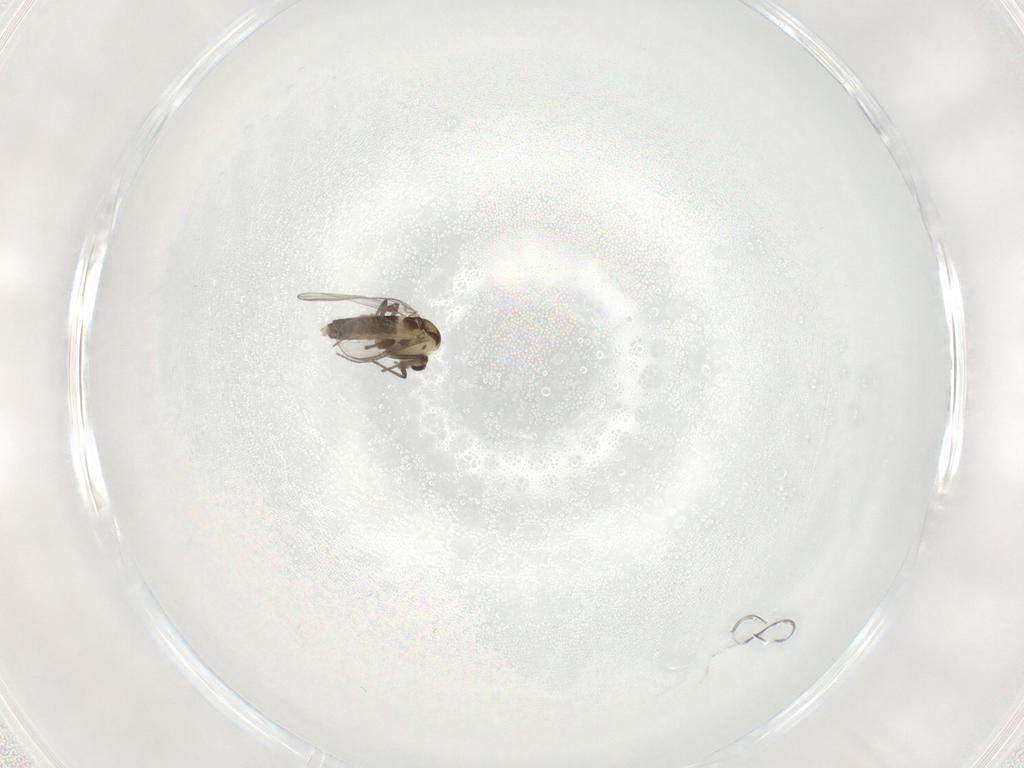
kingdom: Animalia
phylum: Arthropoda
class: Insecta
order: Diptera
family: Chironomidae
